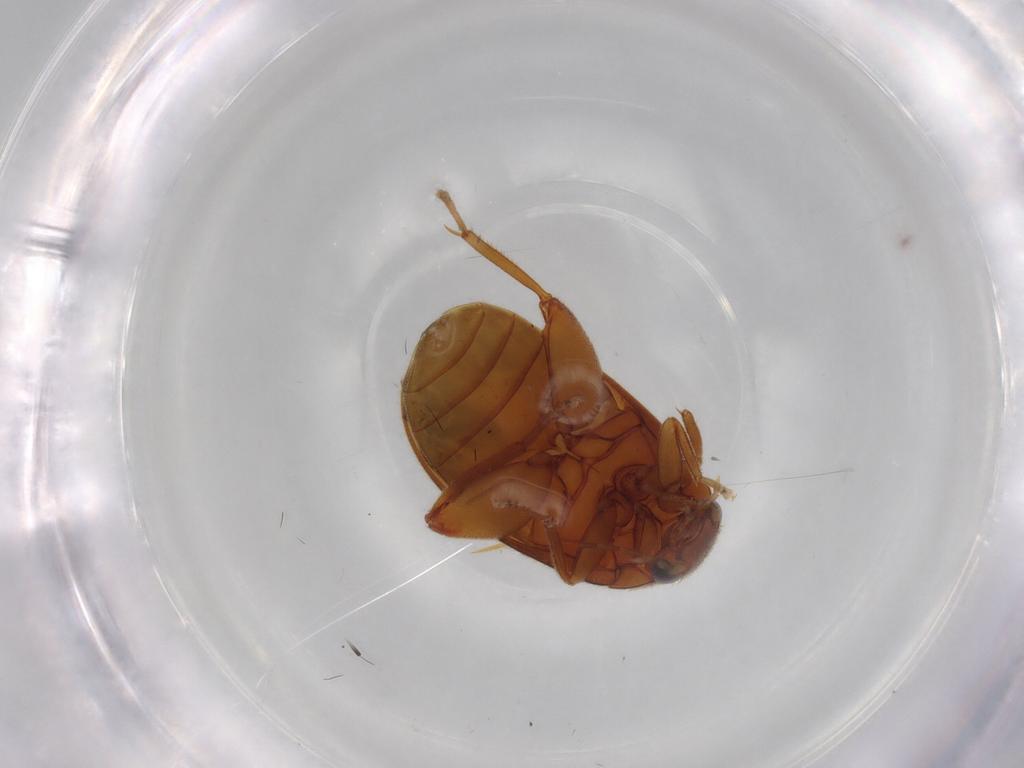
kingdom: Animalia
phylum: Arthropoda
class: Insecta
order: Coleoptera
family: Scirtidae
